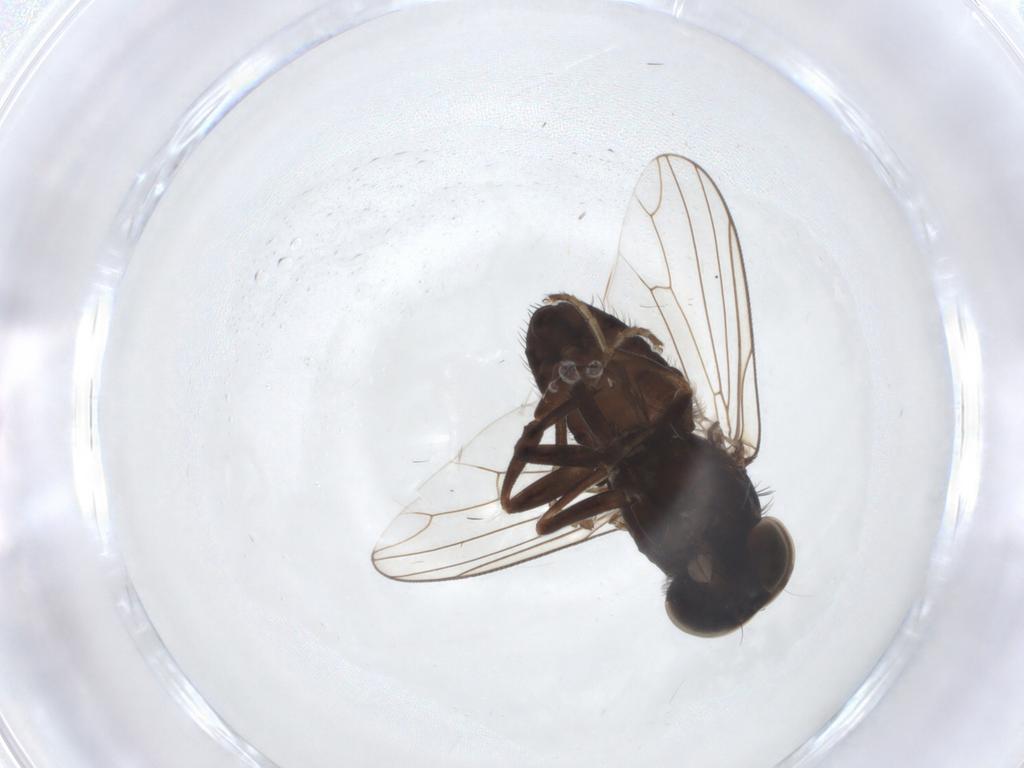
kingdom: Animalia
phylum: Arthropoda
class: Insecta
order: Diptera
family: Platypezidae
